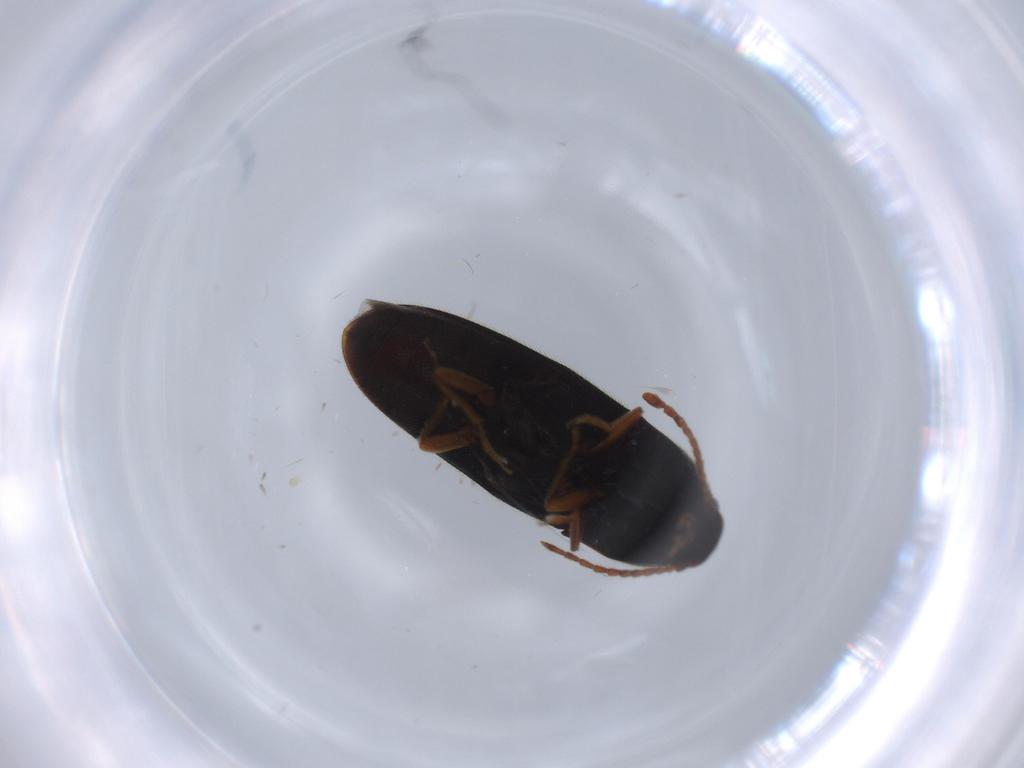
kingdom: Animalia
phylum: Arthropoda
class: Insecta
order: Coleoptera
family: Elateridae
